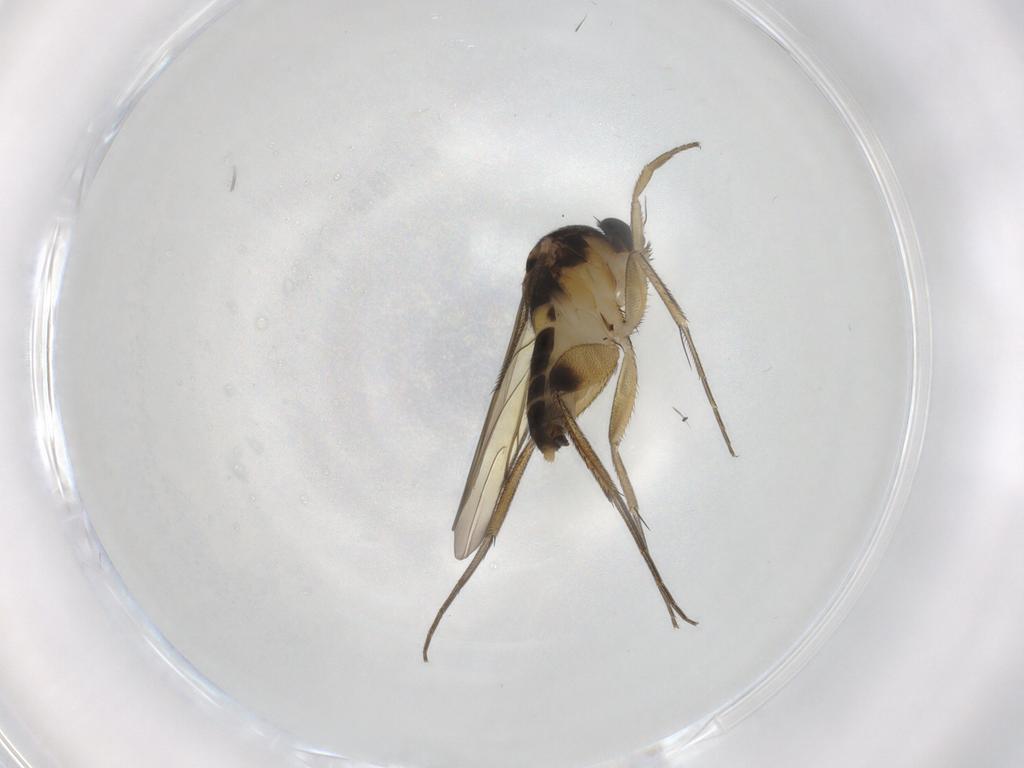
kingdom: Animalia
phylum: Arthropoda
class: Insecta
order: Diptera
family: Phoridae
